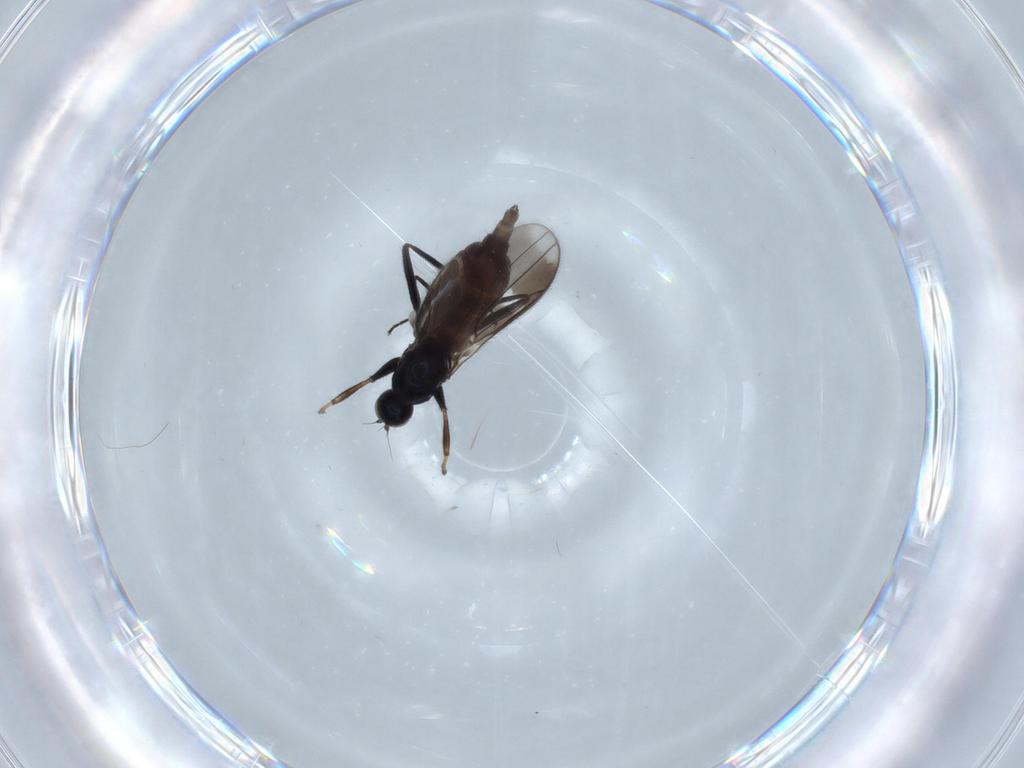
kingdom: Animalia
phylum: Arthropoda
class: Insecta
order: Diptera
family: Hybotidae
